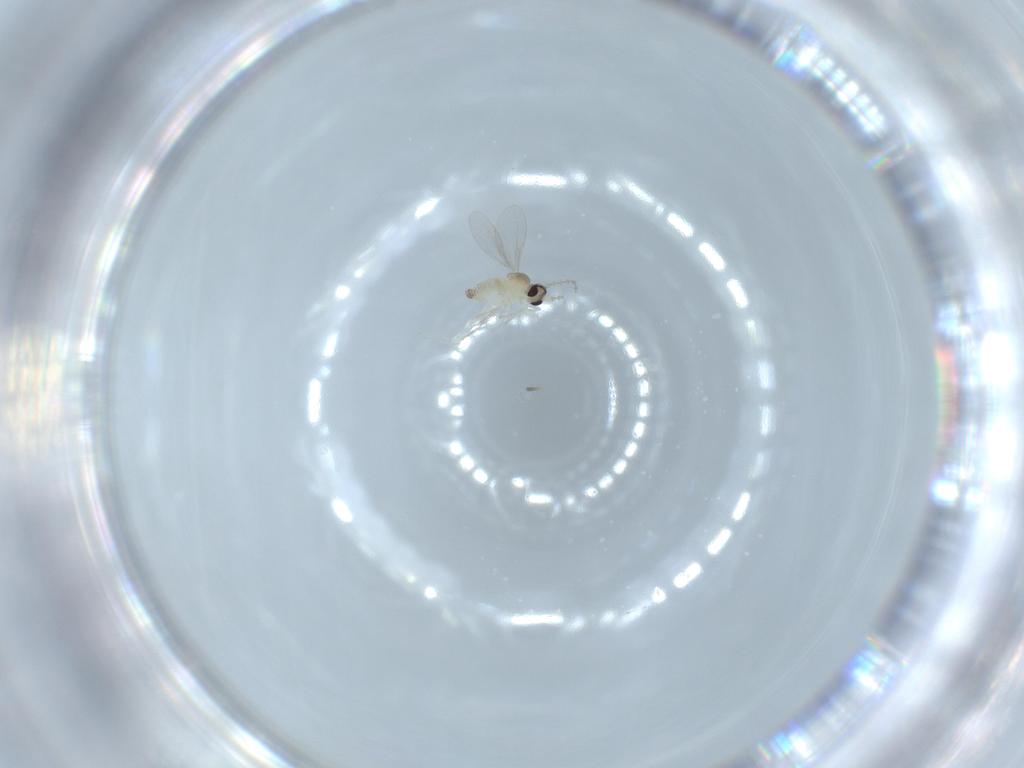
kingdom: Animalia
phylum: Arthropoda
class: Insecta
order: Diptera
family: Cecidomyiidae
